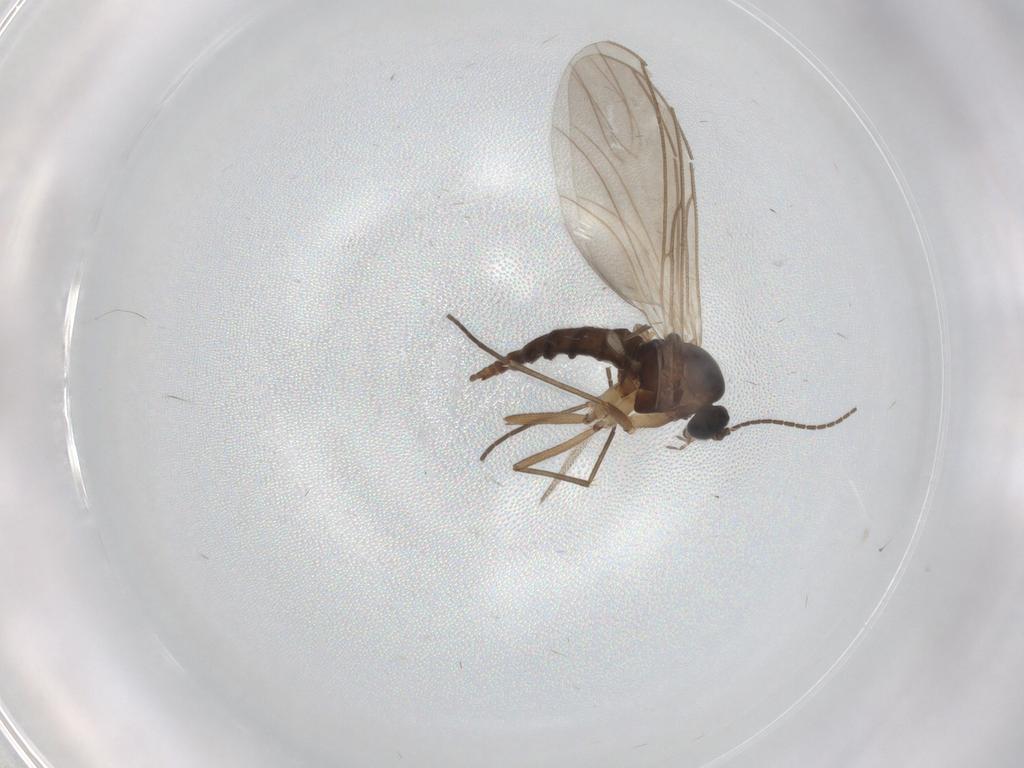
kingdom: Animalia
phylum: Arthropoda
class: Insecta
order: Diptera
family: Sciaridae
